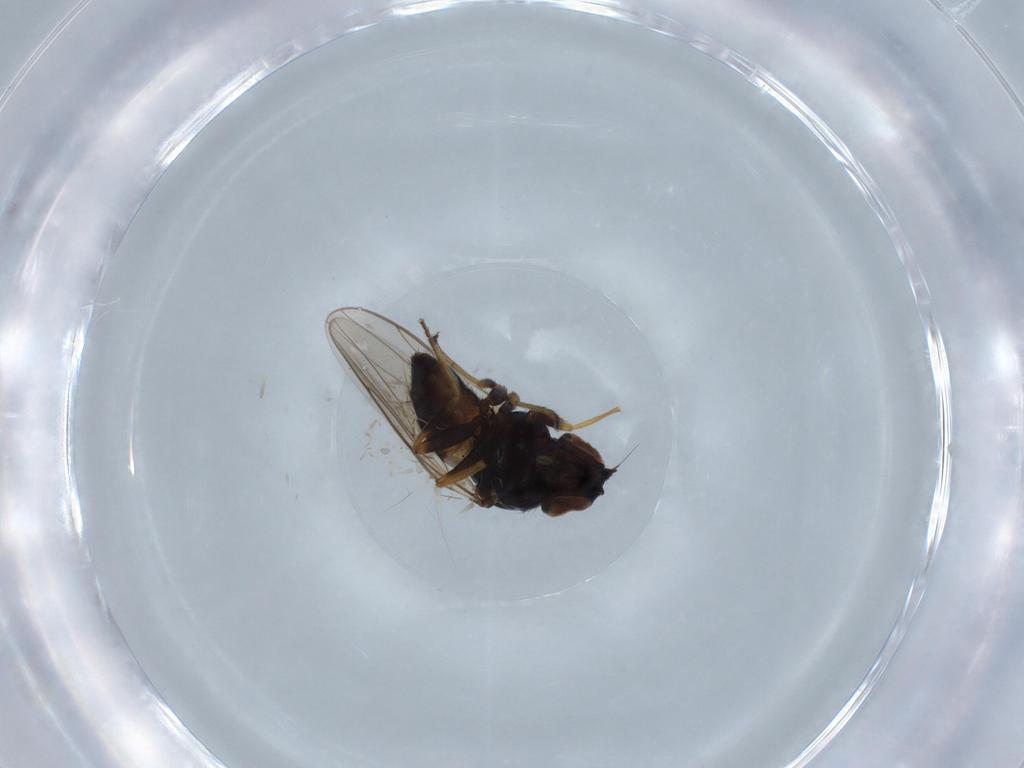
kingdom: Animalia
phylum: Arthropoda
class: Insecta
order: Diptera
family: Chloropidae
